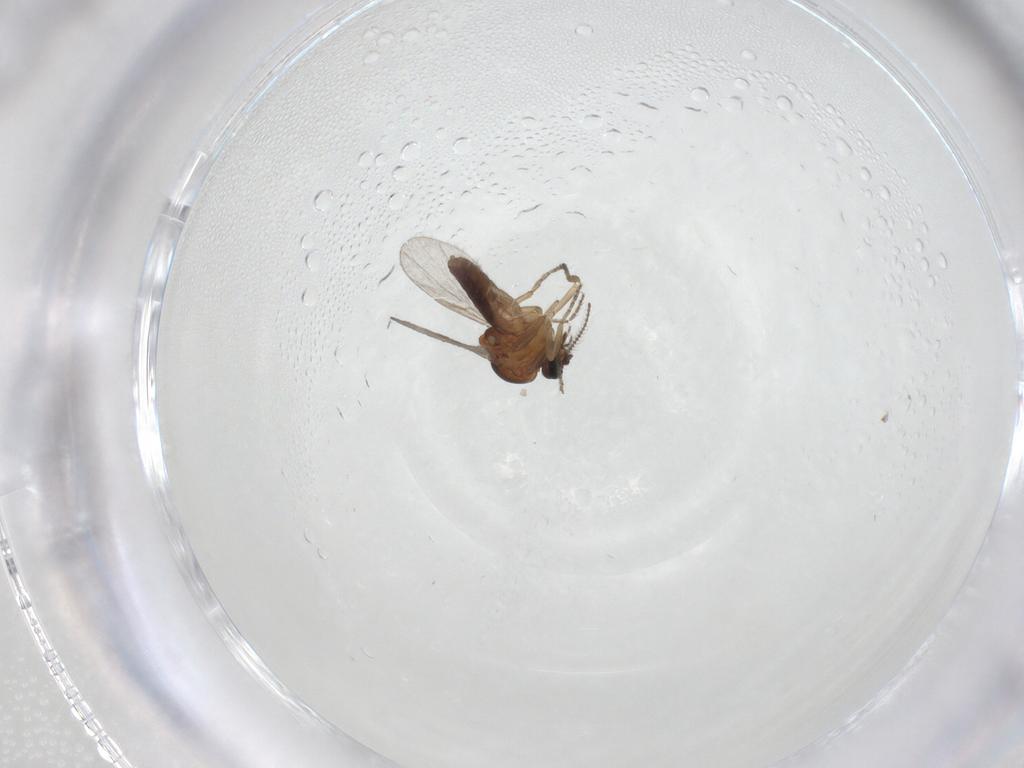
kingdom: Animalia
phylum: Arthropoda
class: Insecta
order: Diptera
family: Ceratopogonidae
